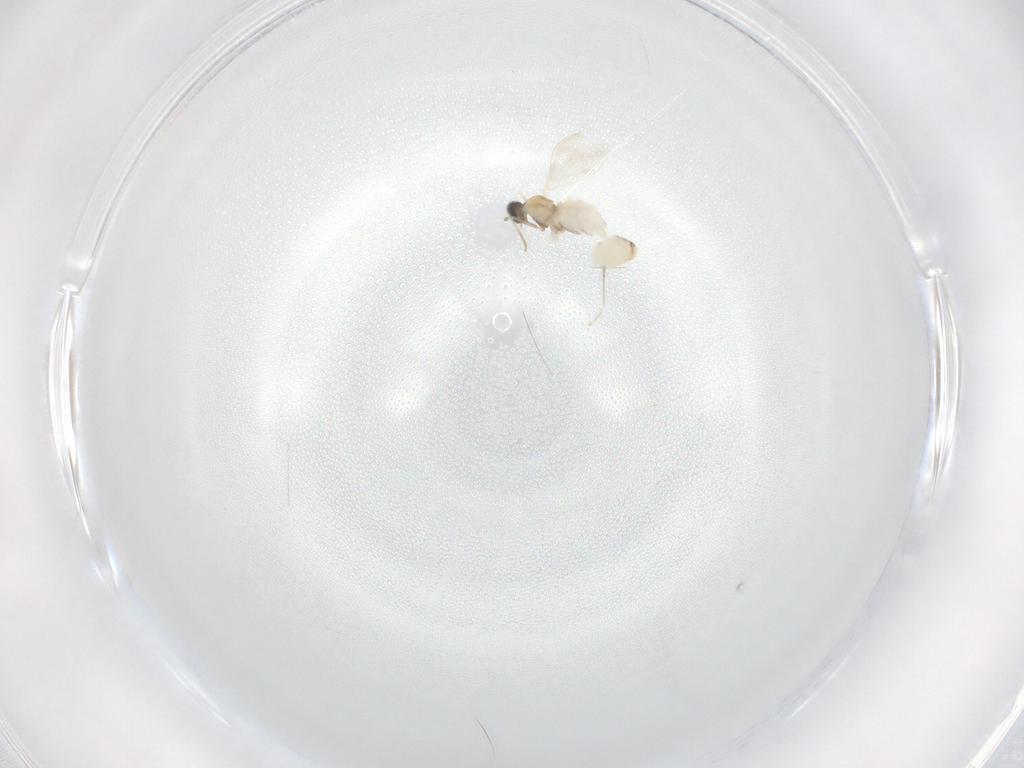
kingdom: Animalia
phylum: Arthropoda
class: Insecta
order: Diptera
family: Cecidomyiidae
